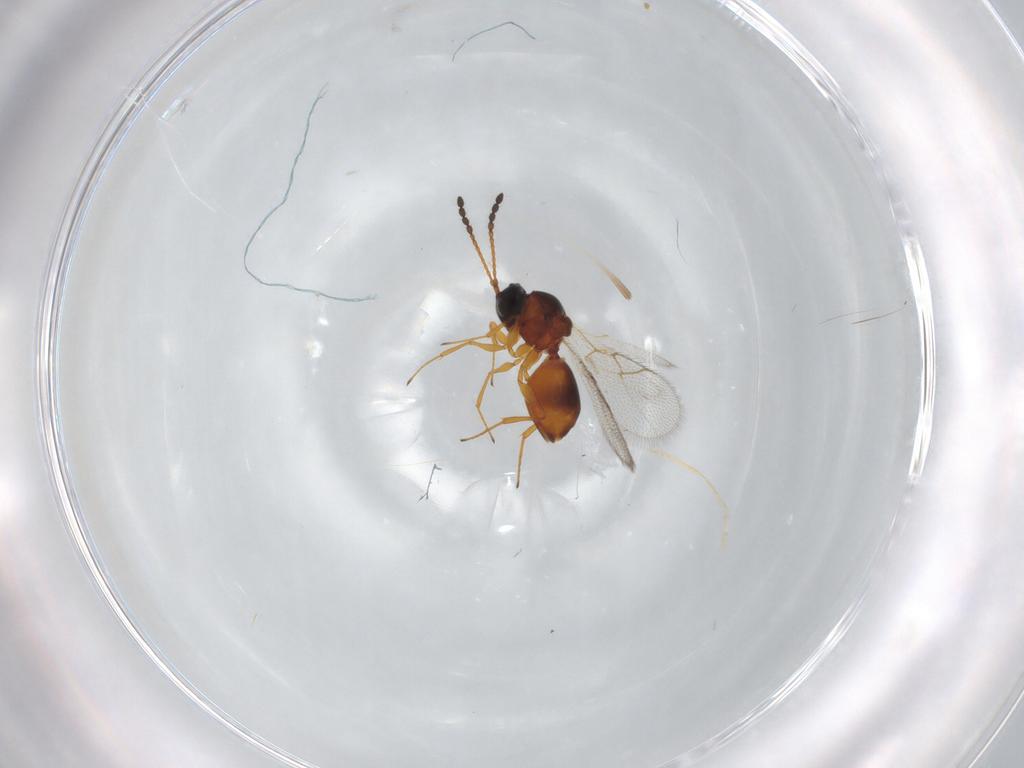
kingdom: Animalia
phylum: Arthropoda
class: Insecta
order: Hymenoptera
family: Figitidae
